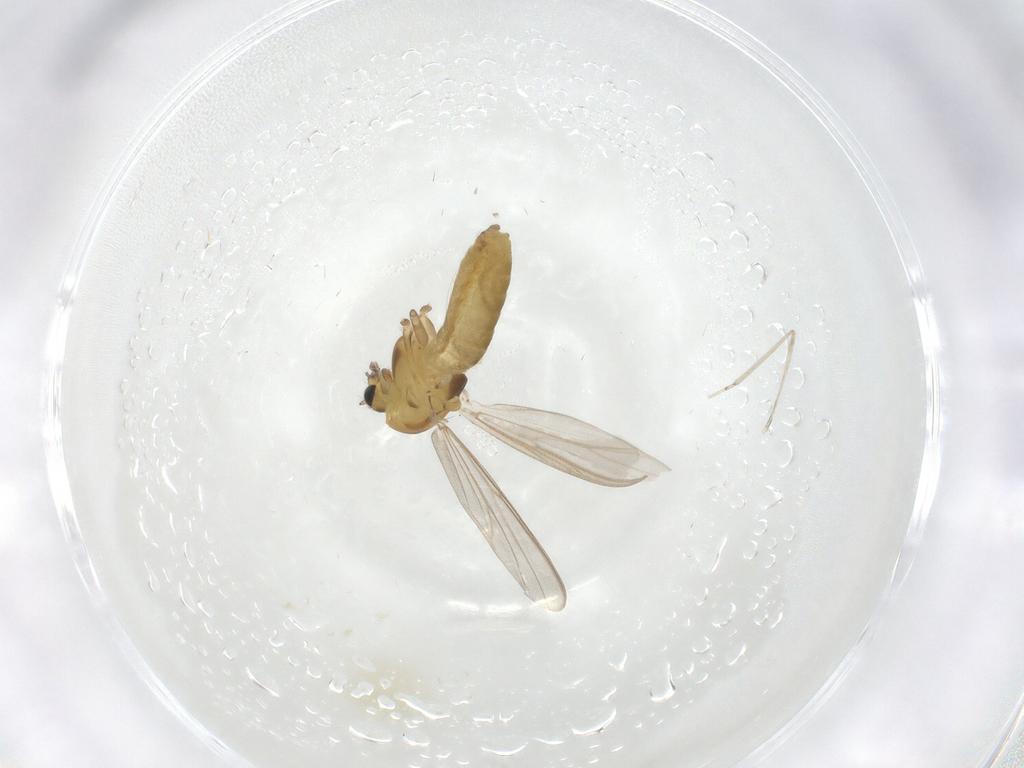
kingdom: Animalia
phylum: Arthropoda
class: Insecta
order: Diptera
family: Chironomidae
